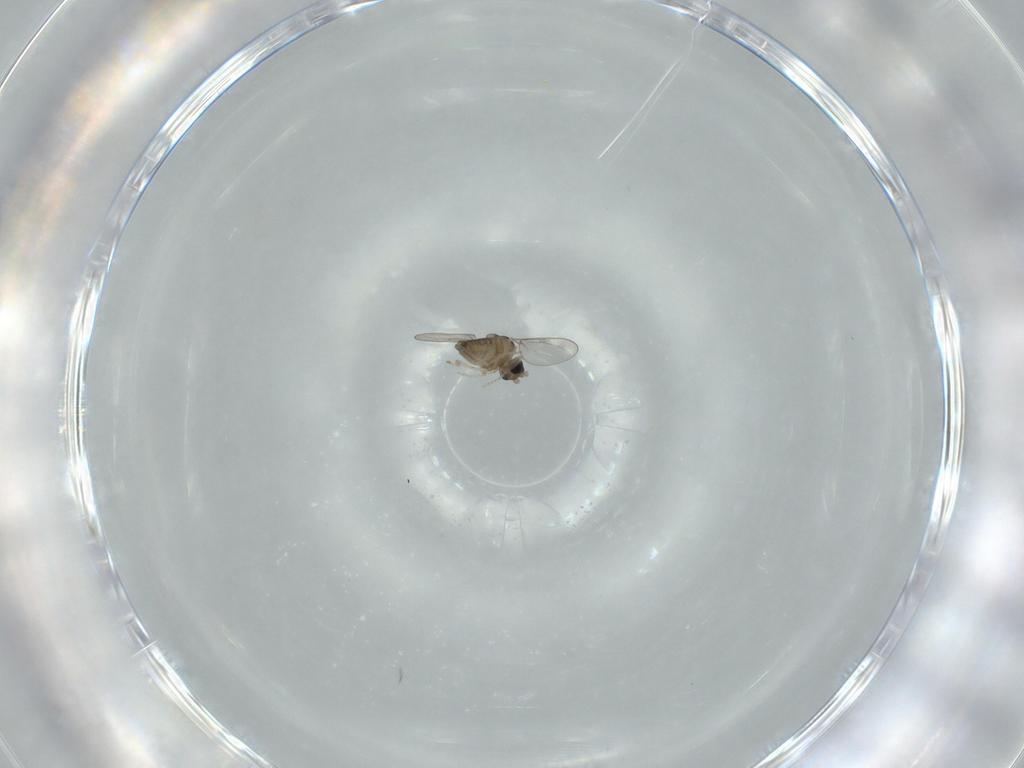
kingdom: Animalia
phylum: Arthropoda
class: Insecta
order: Diptera
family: Cecidomyiidae
